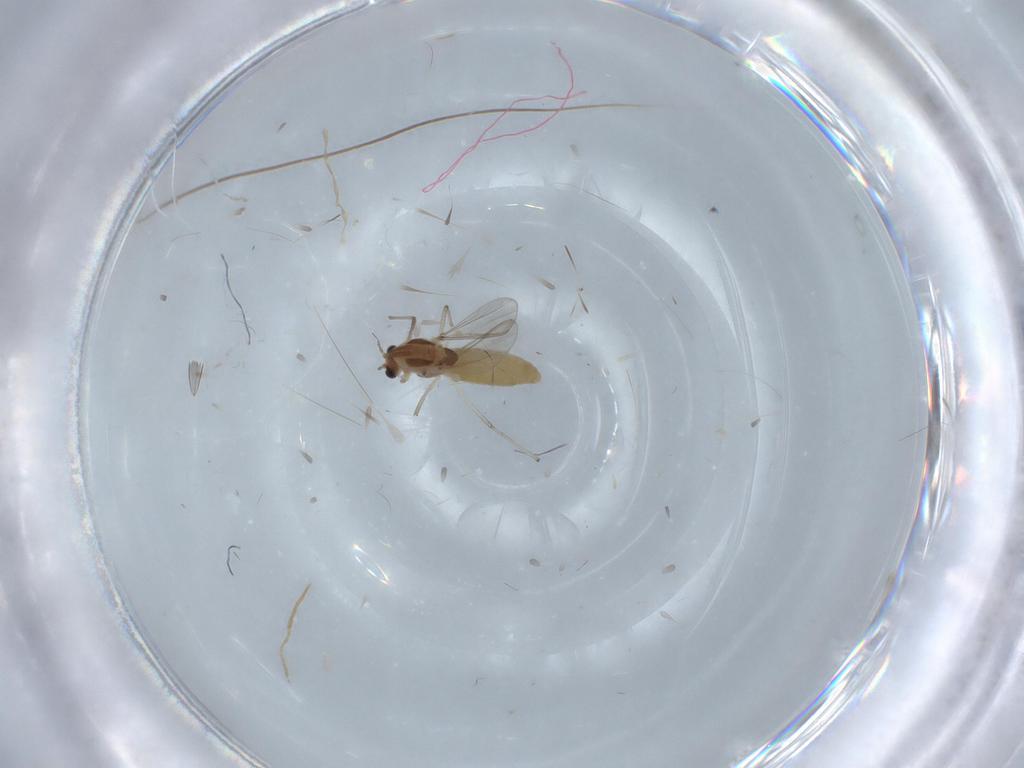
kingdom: Animalia
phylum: Arthropoda
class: Insecta
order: Diptera
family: Chironomidae
